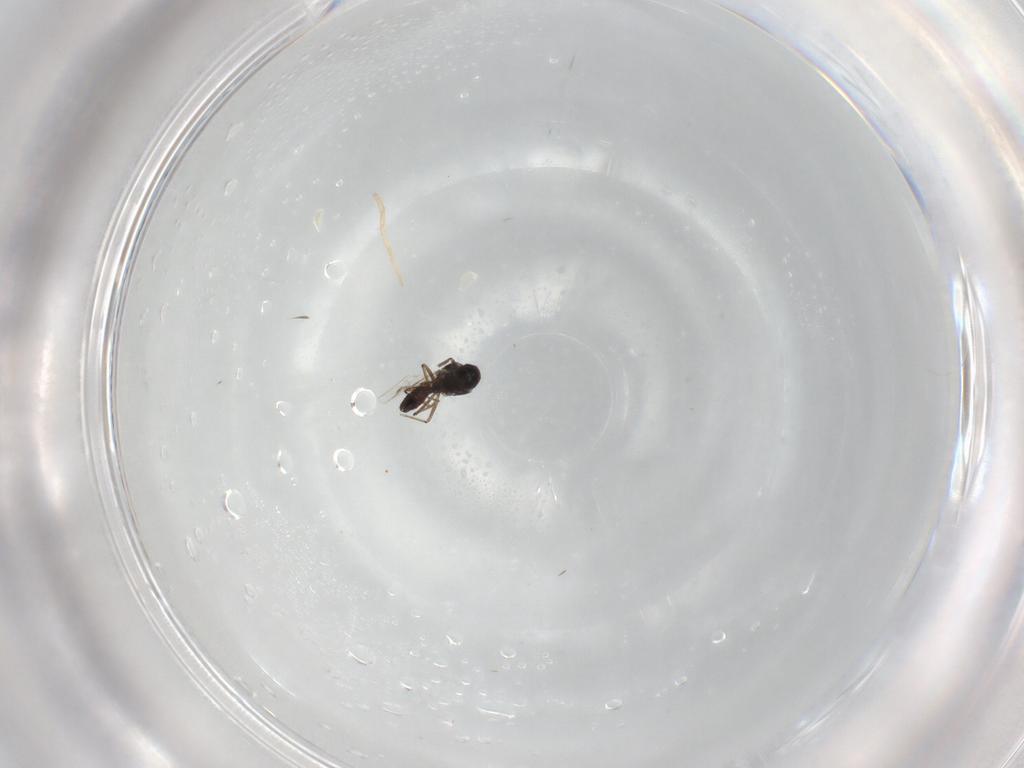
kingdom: Animalia
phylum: Arthropoda
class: Insecta
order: Diptera
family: Ceratopogonidae
